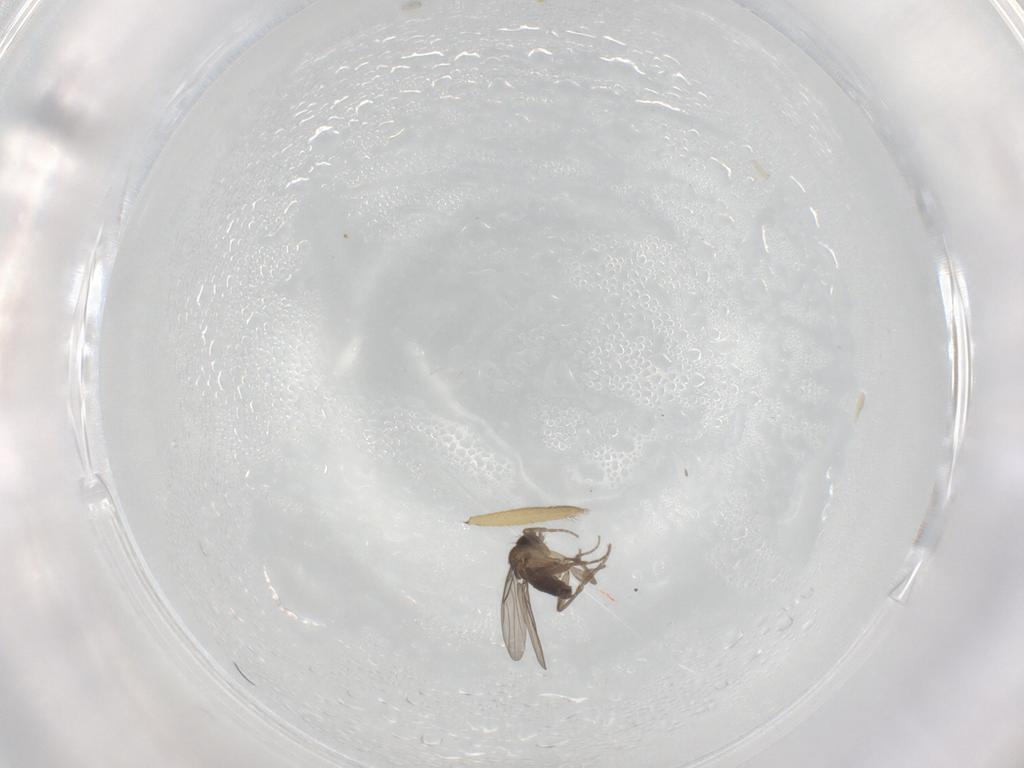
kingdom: Animalia
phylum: Arthropoda
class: Insecta
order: Diptera
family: Phoridae
